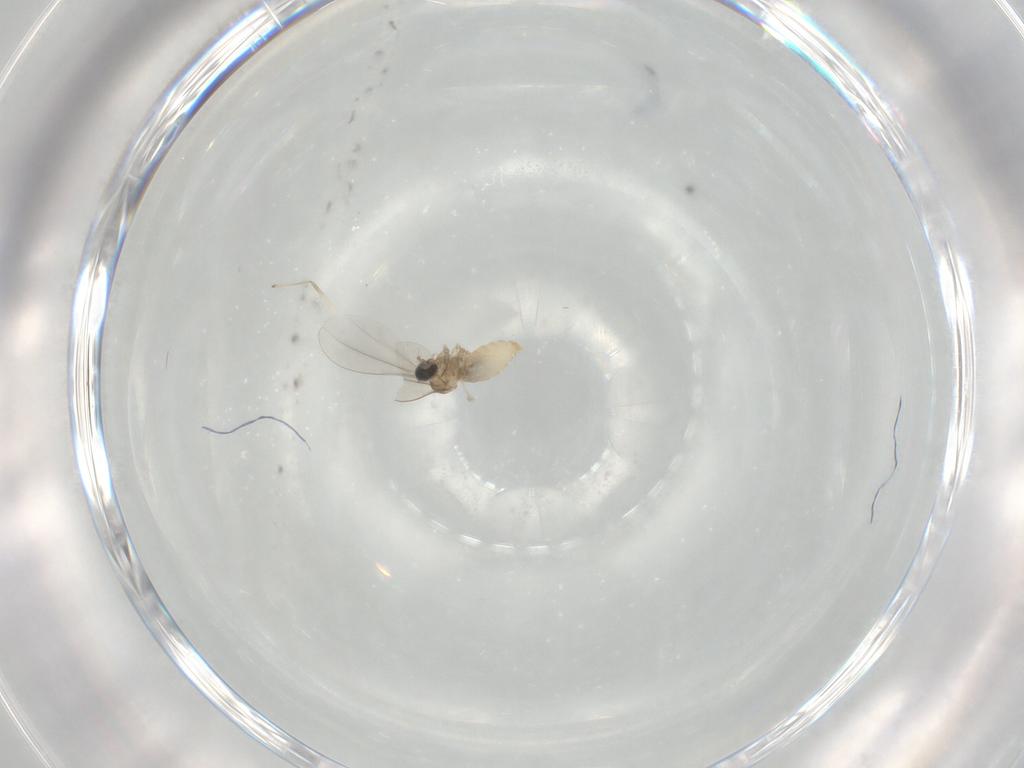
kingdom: Animalia
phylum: Arthropoda
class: Insecta
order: Diptera
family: Cecidomyiidae
